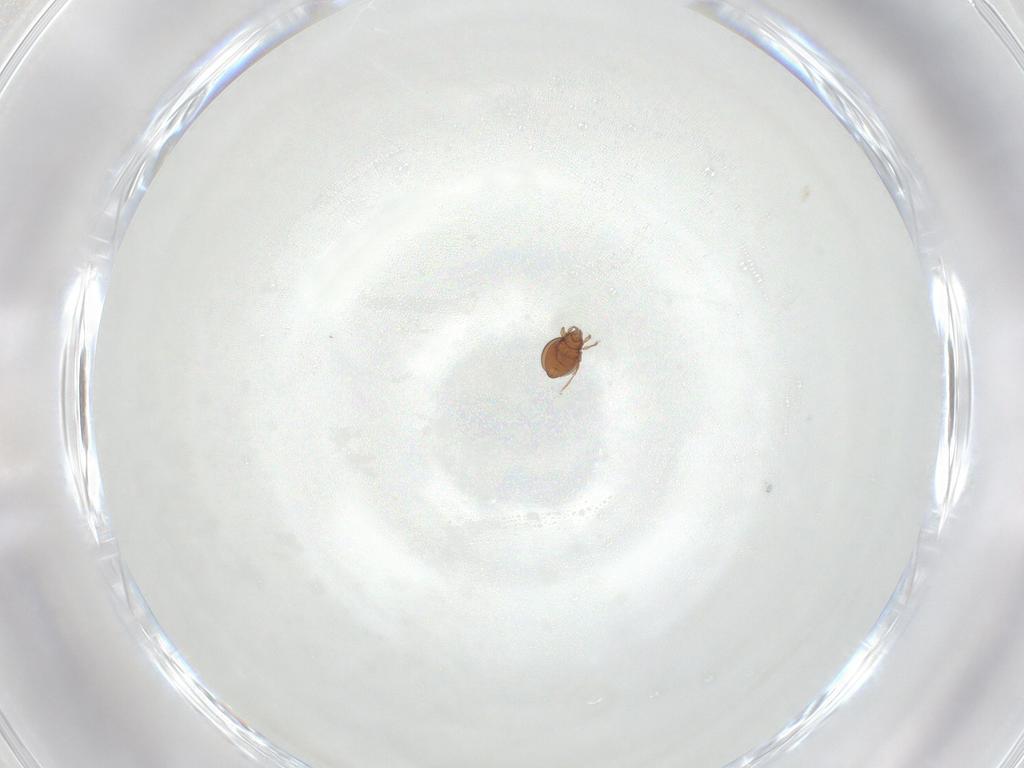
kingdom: Animalia
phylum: Arthropoda
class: Arachnida
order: Sarcoptiformes
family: Oribatulidae
